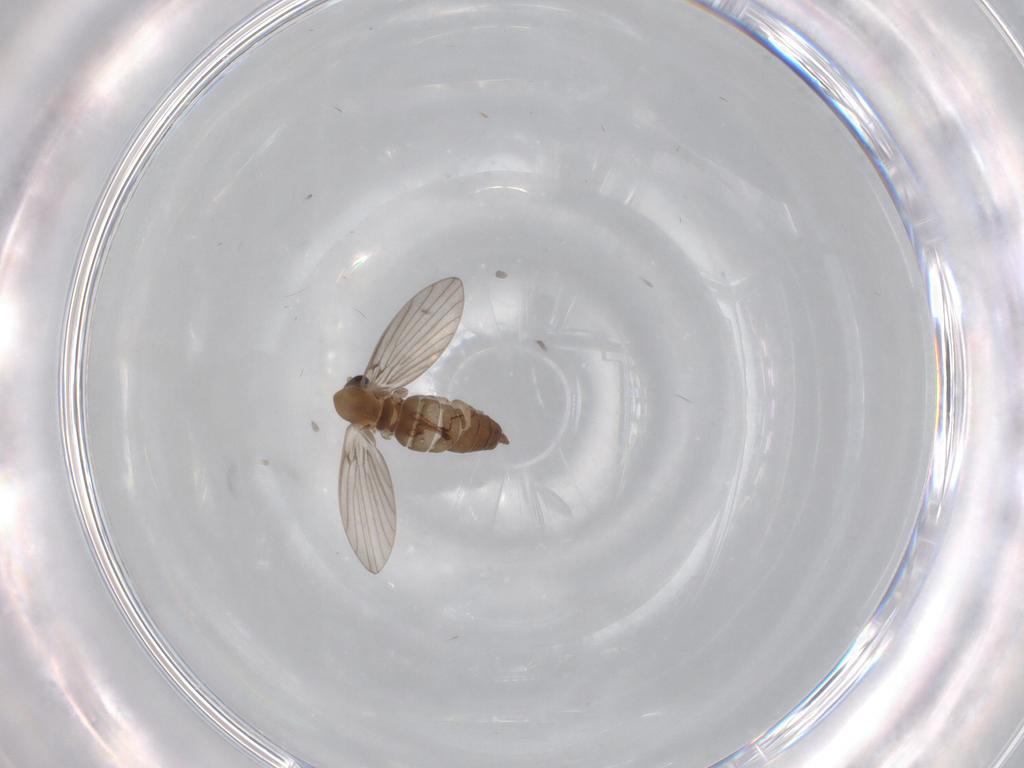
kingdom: Animalia
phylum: Arthropoda
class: Insecta
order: Diptera
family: Psychodidae
